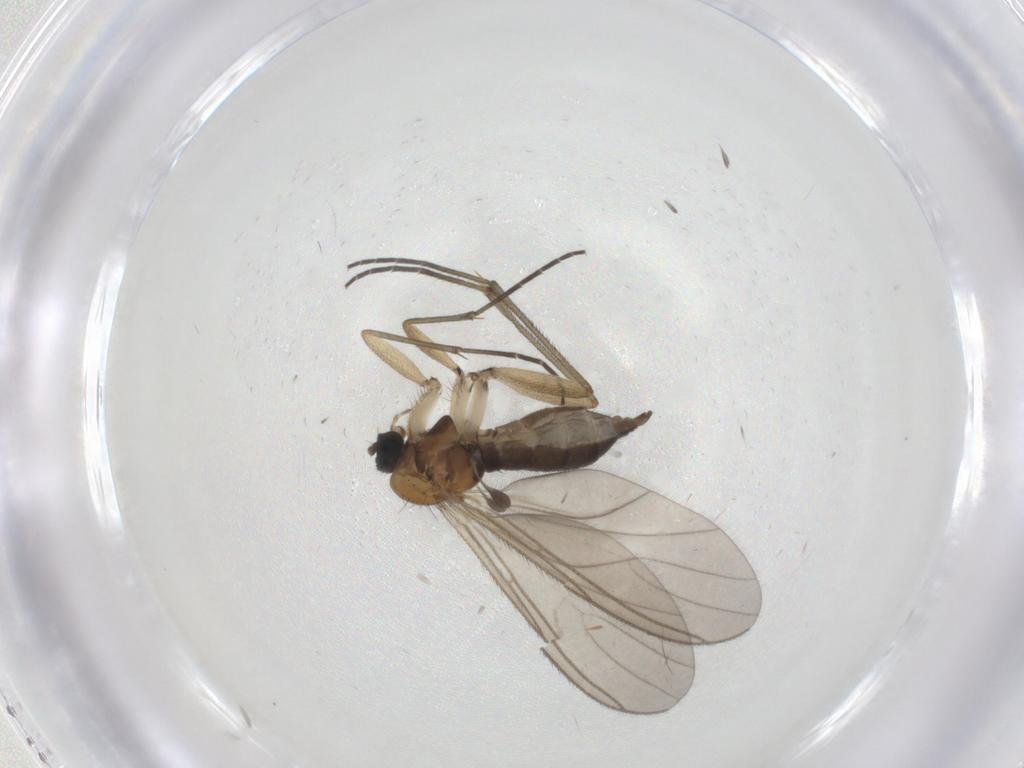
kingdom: Animalia
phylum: Arthropoda
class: Insecta
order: Diptera
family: Sciaridae
